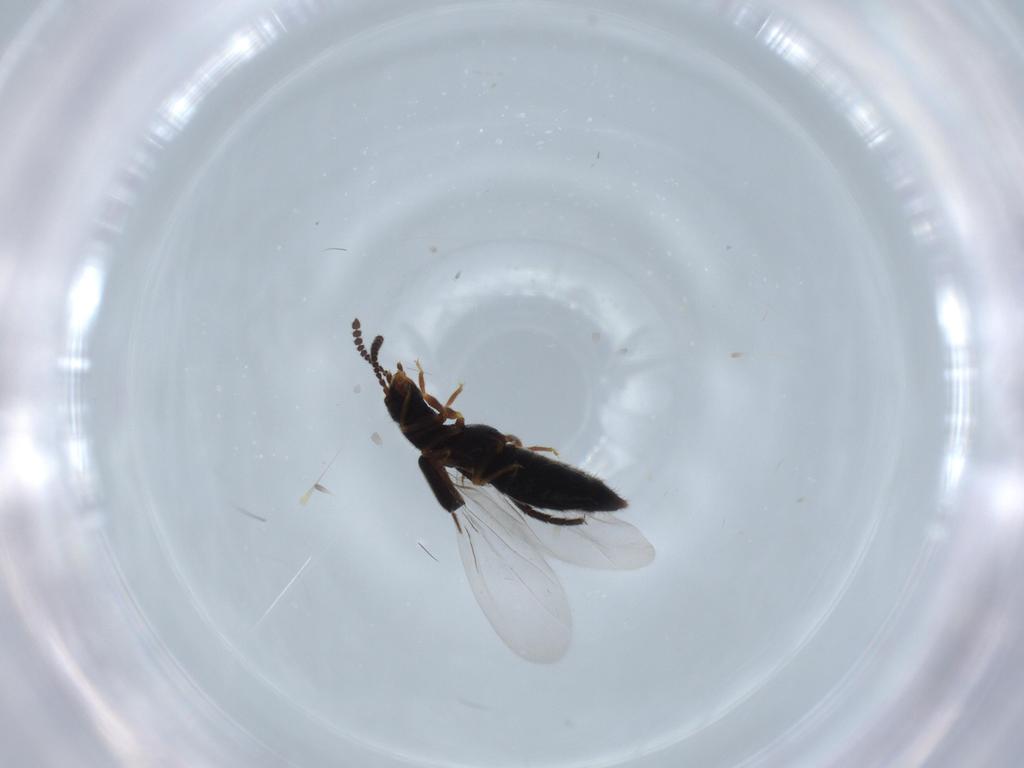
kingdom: Animalia
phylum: Arthropoda
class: Insecta
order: Coleoptera
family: Staphylinidae
